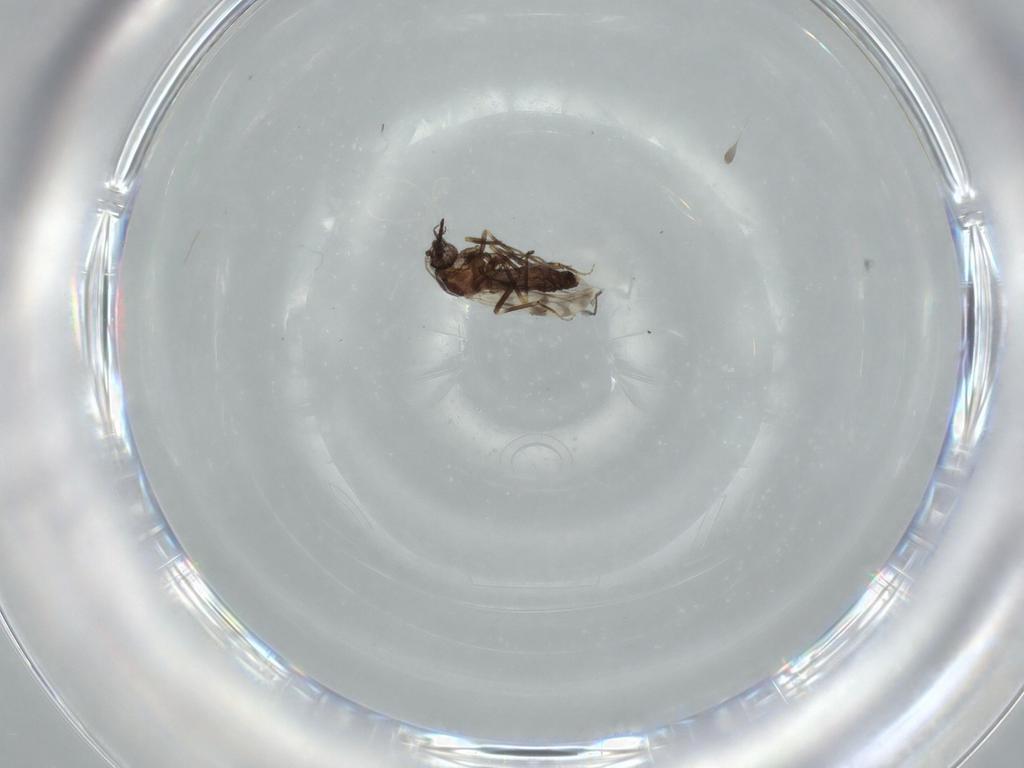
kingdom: Animalia
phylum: Arthropoda
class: Insecta
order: Diptera
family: Ceratopogonidae
